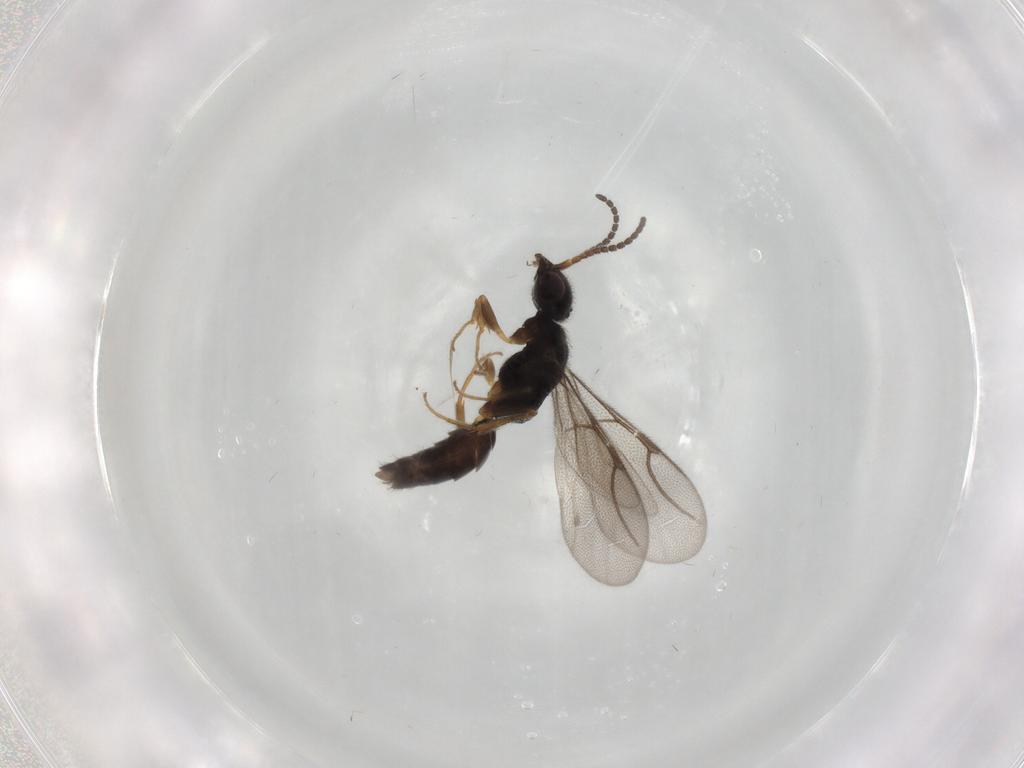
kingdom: Animalia
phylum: Arthropoda
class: Insecta
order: Hymenoptera
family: Bethylidae
